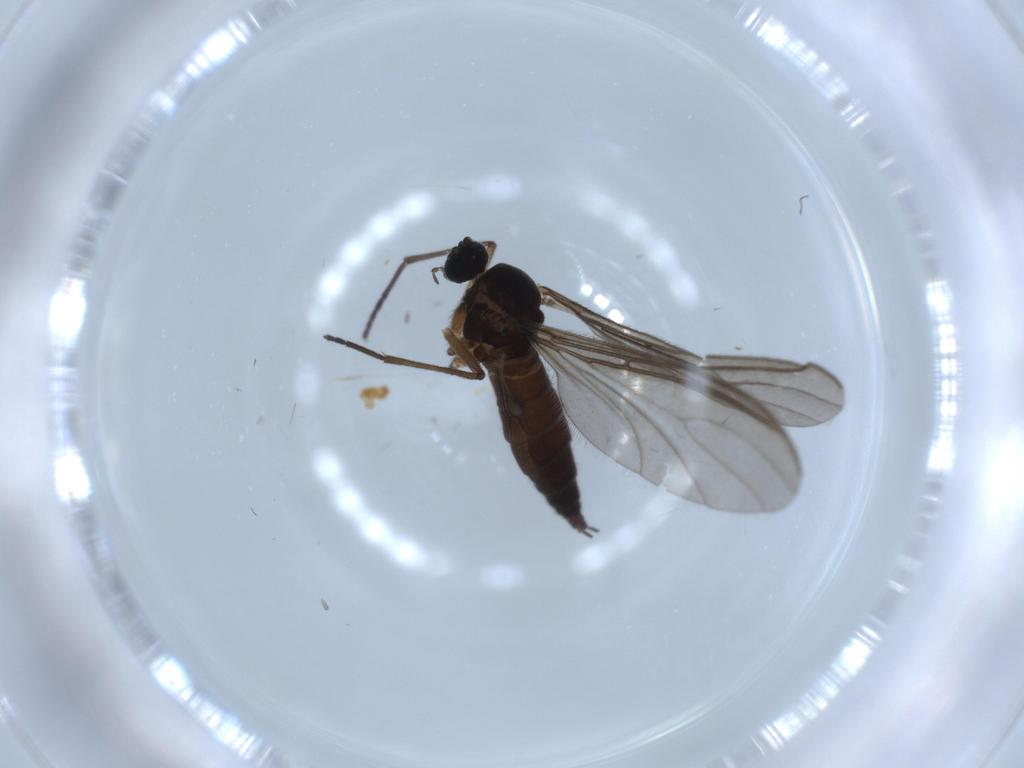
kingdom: Animalia
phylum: Arthropoda
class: Insecta
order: Diptera
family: Sciaridae
